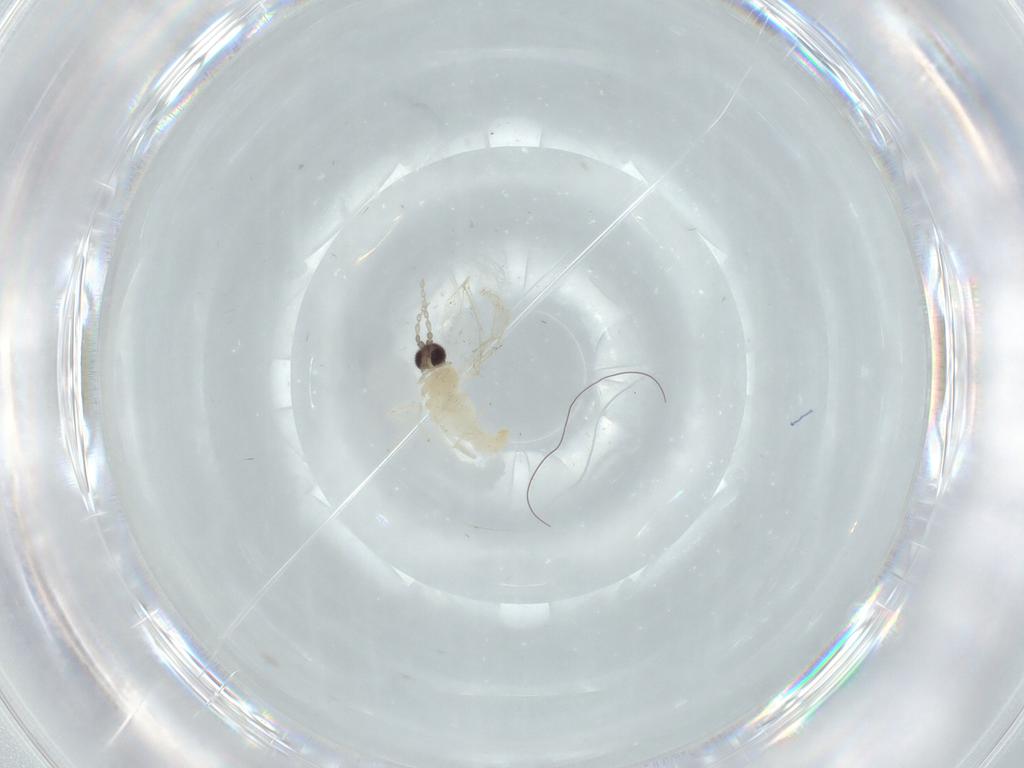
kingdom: Animalia
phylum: Arthropoda
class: Insecta
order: Diptera
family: Cecidomyiidae
